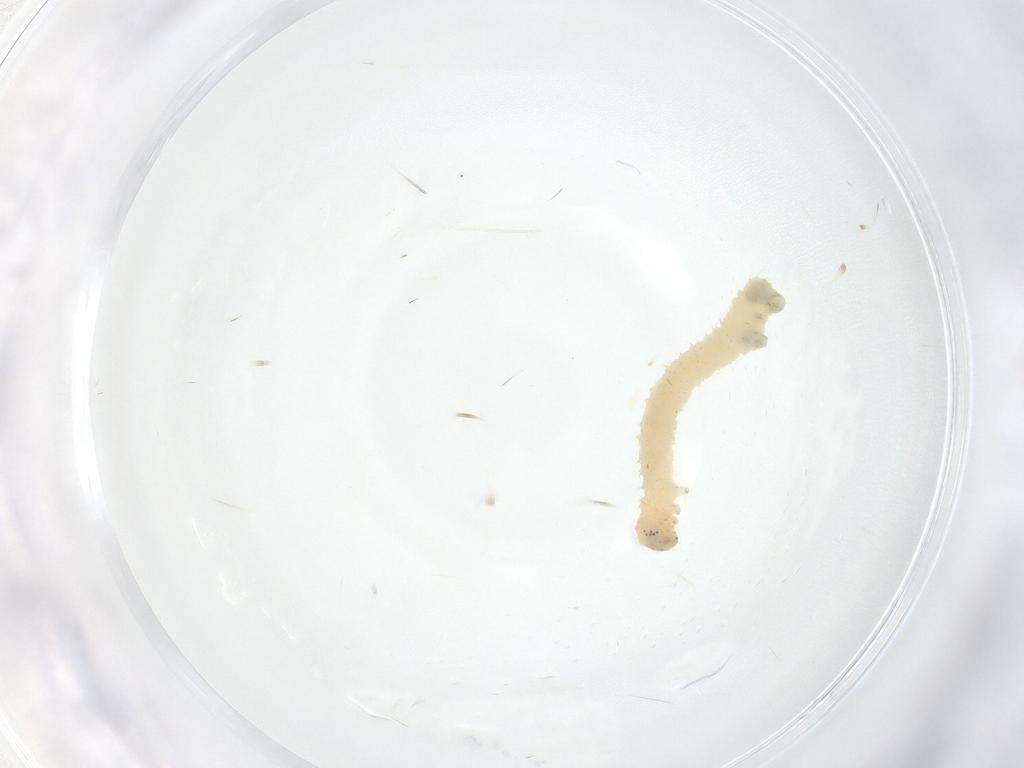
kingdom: Animalia
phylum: Arthropoda
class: Insecta
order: Lepidoptera
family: Geometridae
